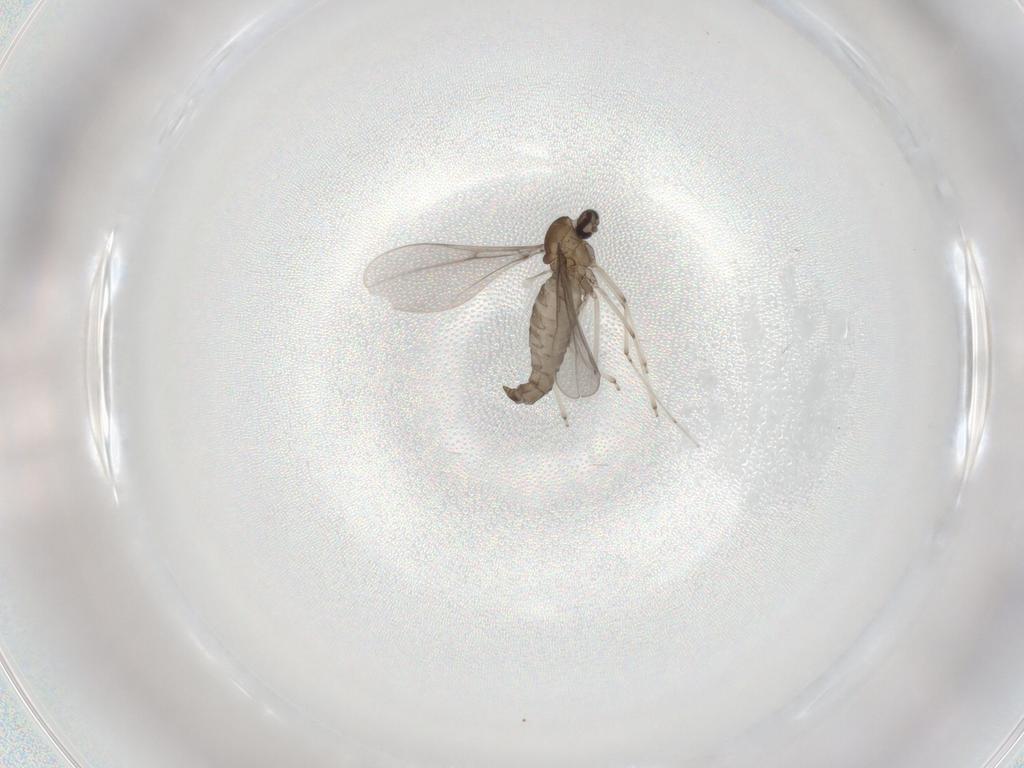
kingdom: Animalia
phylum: Arthropoda
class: Insecta
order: Diptera
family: Cecidomyiidae
